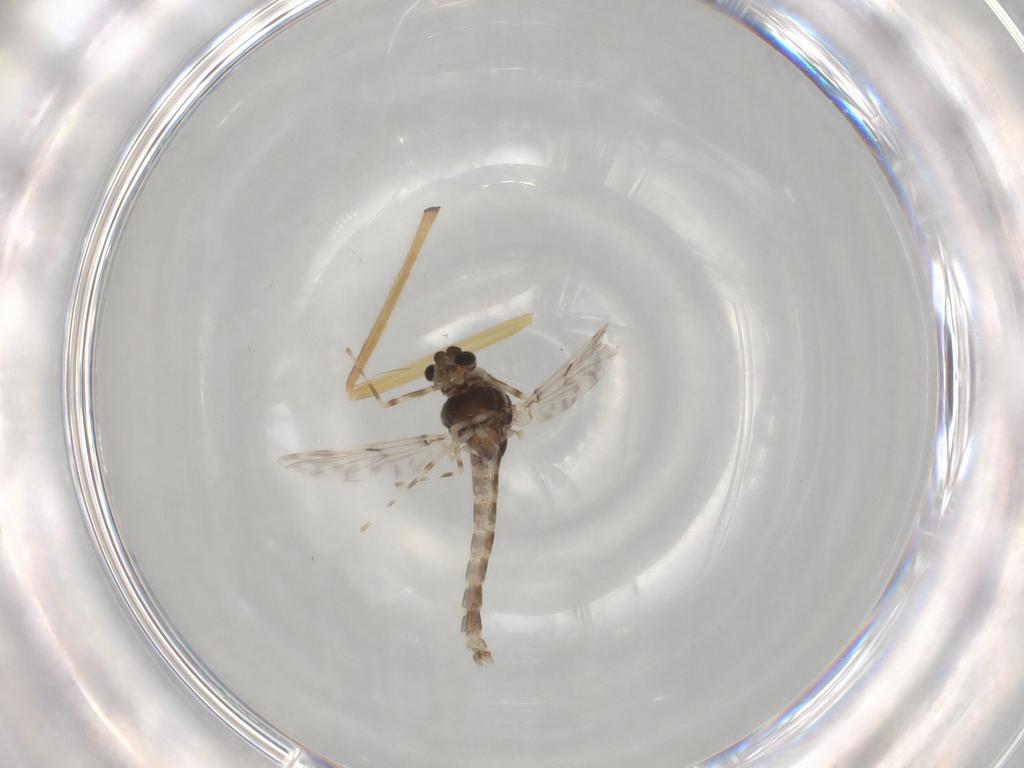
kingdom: Animalia
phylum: Arthropoda
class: Insecta
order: Diptera
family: Chironomidae
